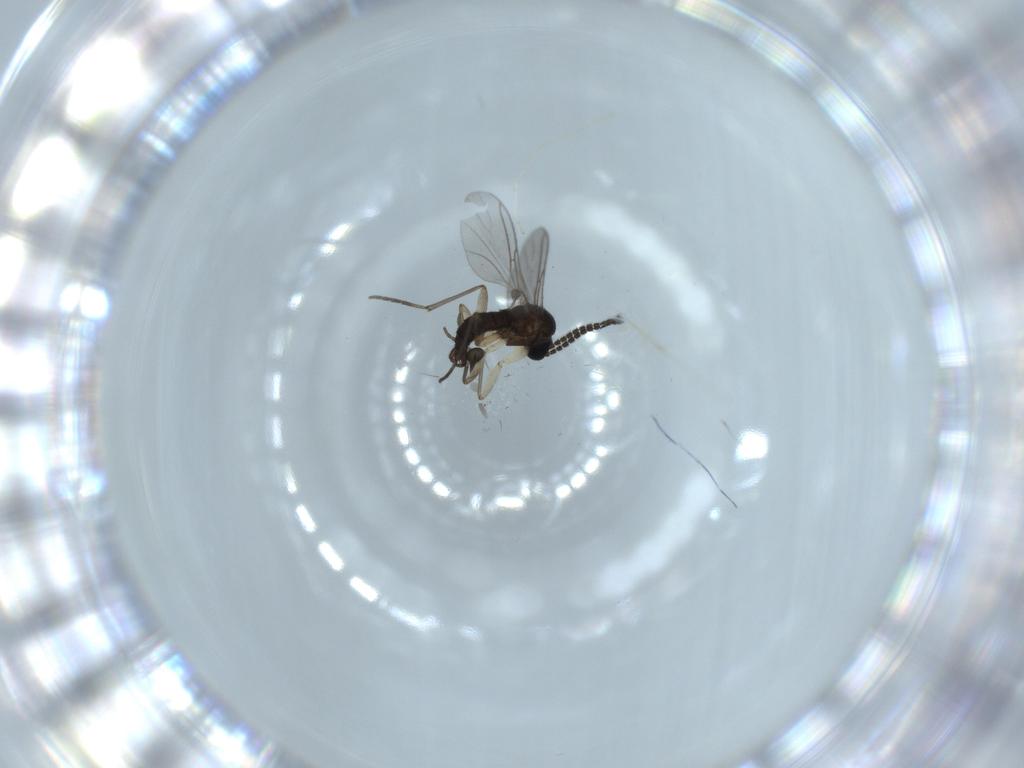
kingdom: Animalia
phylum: Arthropoda
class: Insecta
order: Diptera
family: Sciaridae
